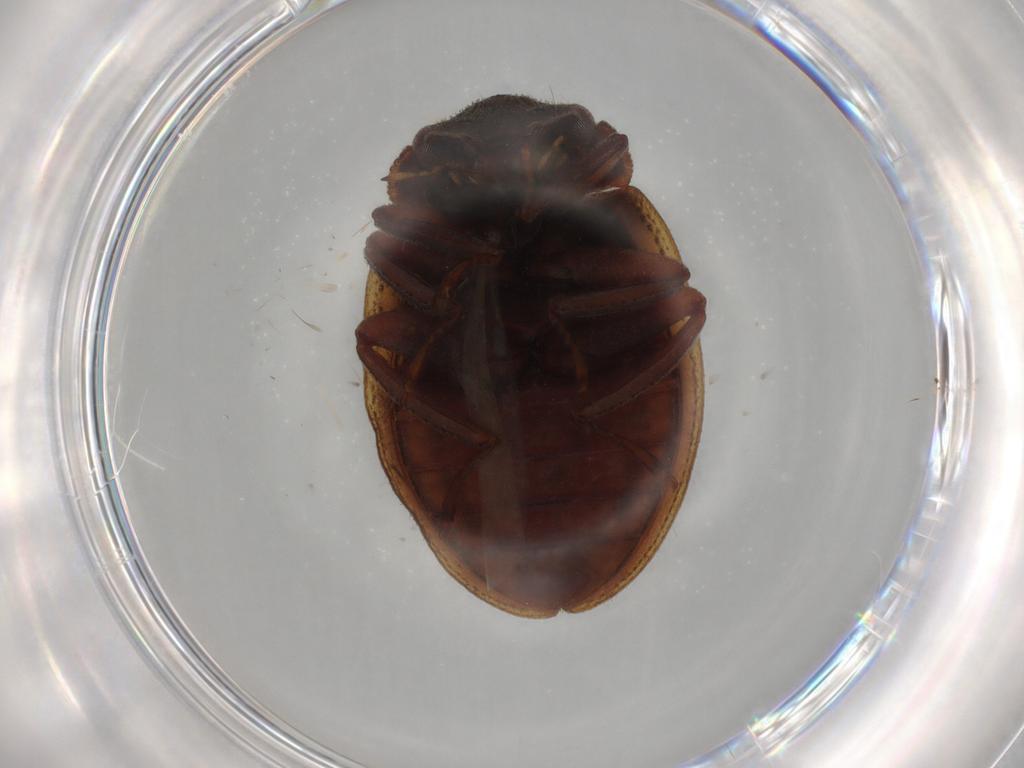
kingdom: Animalia
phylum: Arthropoda
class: Insecta
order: Coleoptera
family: Spercheidae
